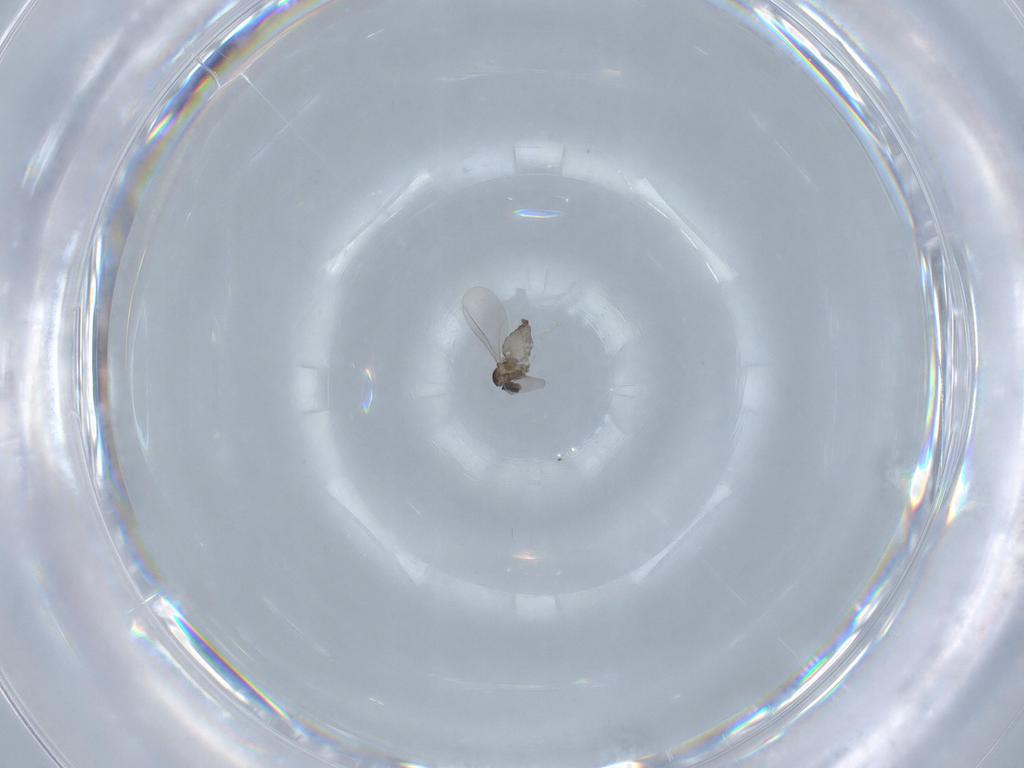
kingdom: Animalia
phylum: Arthropoda
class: Insecta
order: Diptera
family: Cecidomyiidae
